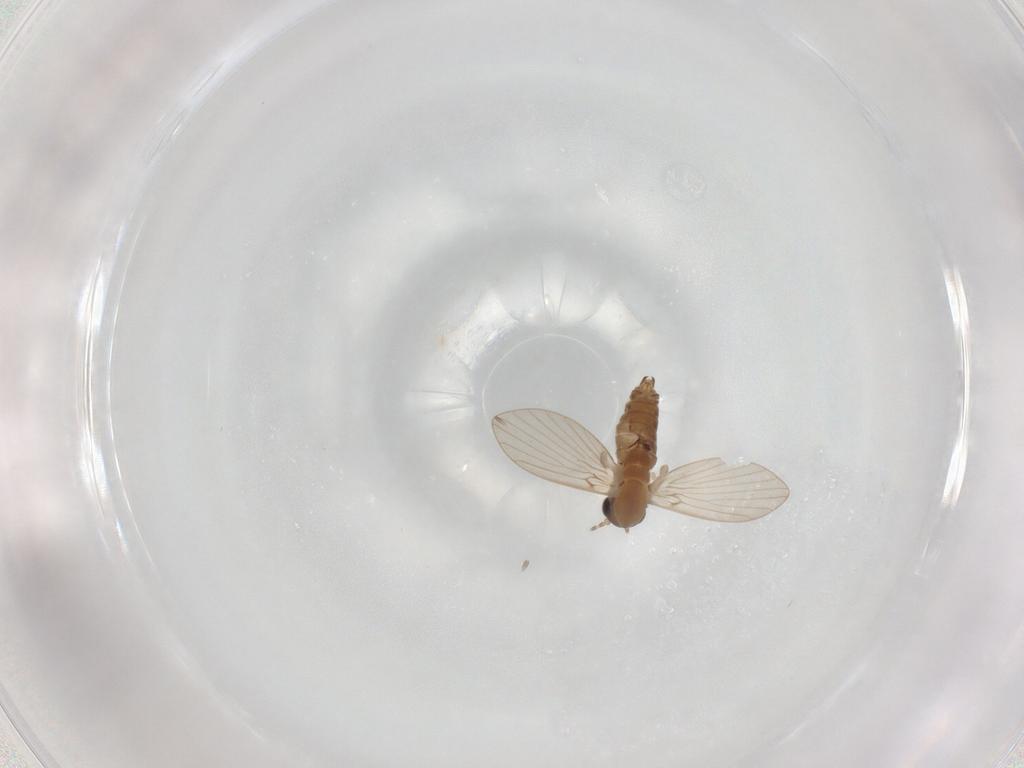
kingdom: Animalia
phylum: Arthropoda
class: Insecta
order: Diptera
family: Cecidomyiidae
